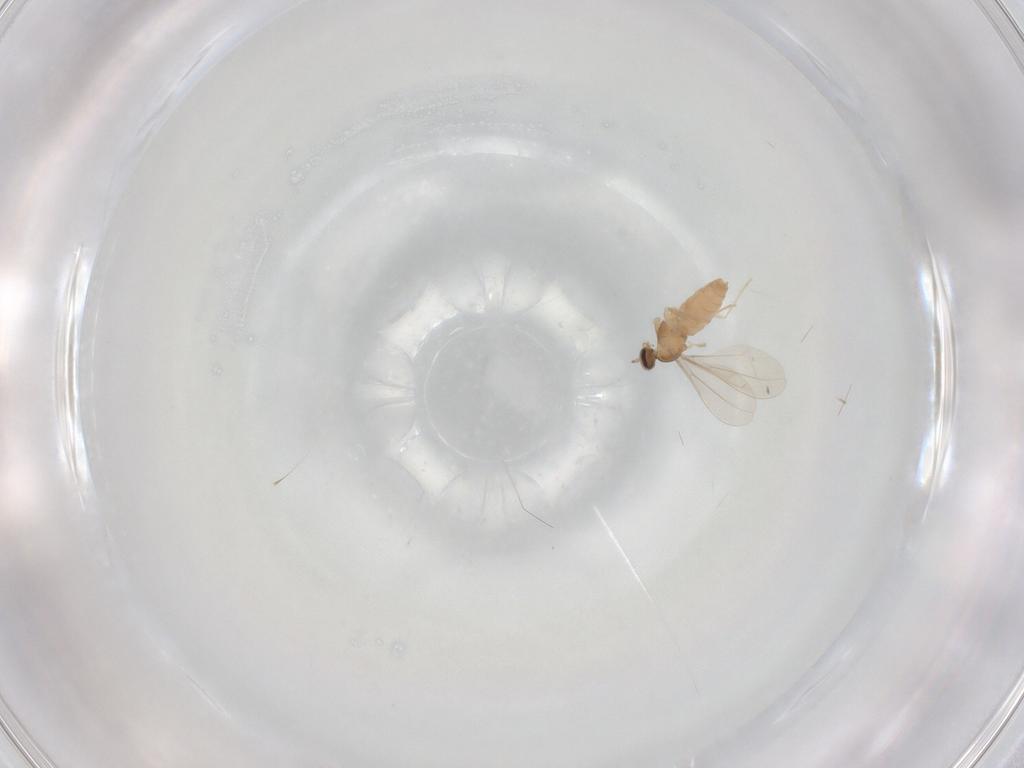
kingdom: Animalia
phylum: Arthropoda
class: Insecta
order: Diptera
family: Cecidomyiidae
